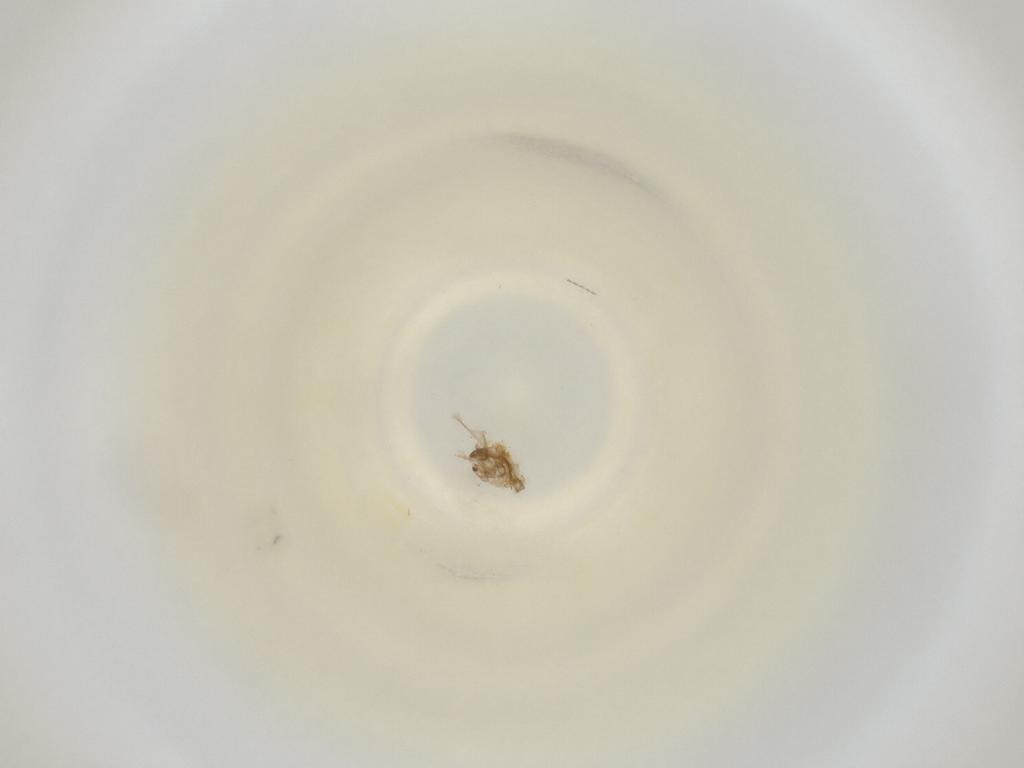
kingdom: Animalia
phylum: Arthropoda
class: Insecta
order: Diptera
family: Cecidomyiidae
